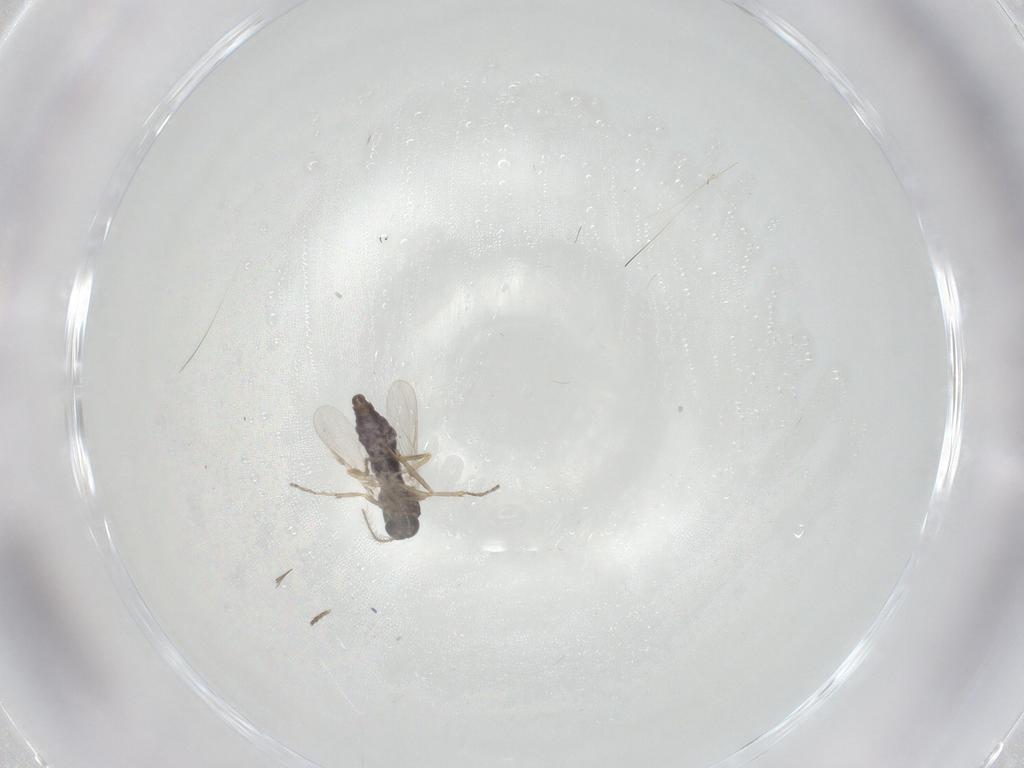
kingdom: Animalia
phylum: Arthropoda
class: Insecta
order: Diptera
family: Ceratopogonidae
